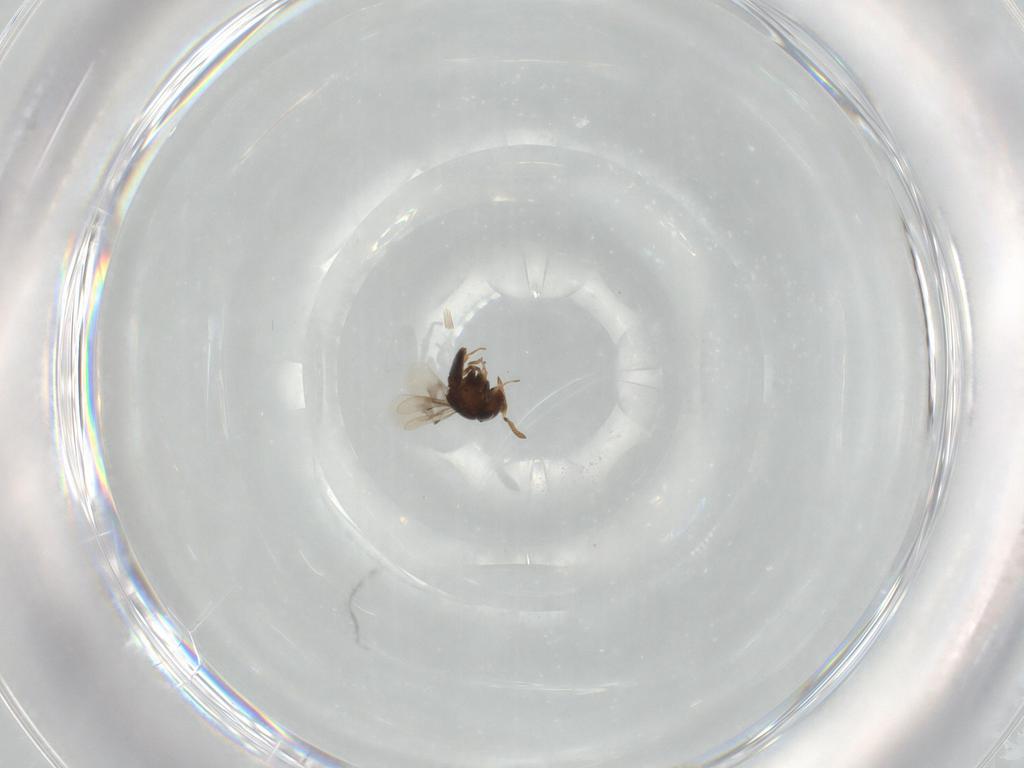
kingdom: Animalia
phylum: Arthropoda
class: Insecta
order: Hymenoptera
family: Scelionidae
